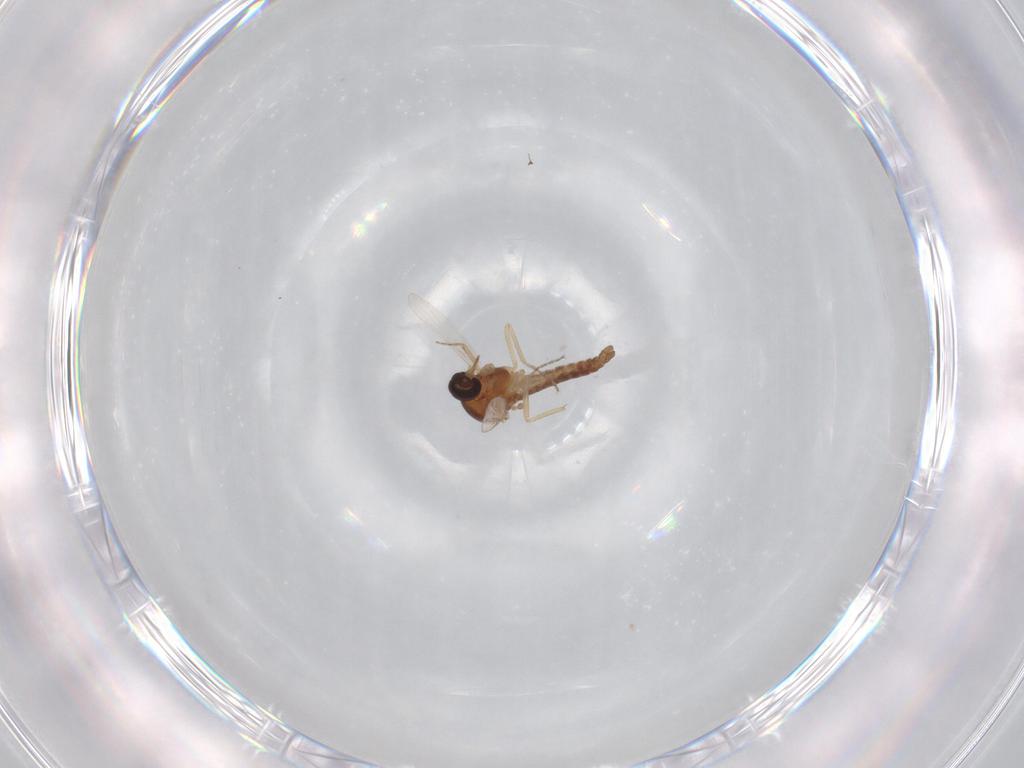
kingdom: Animalia
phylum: Arthropoda
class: Insecta
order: Diptera
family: Ceratopogonidae
